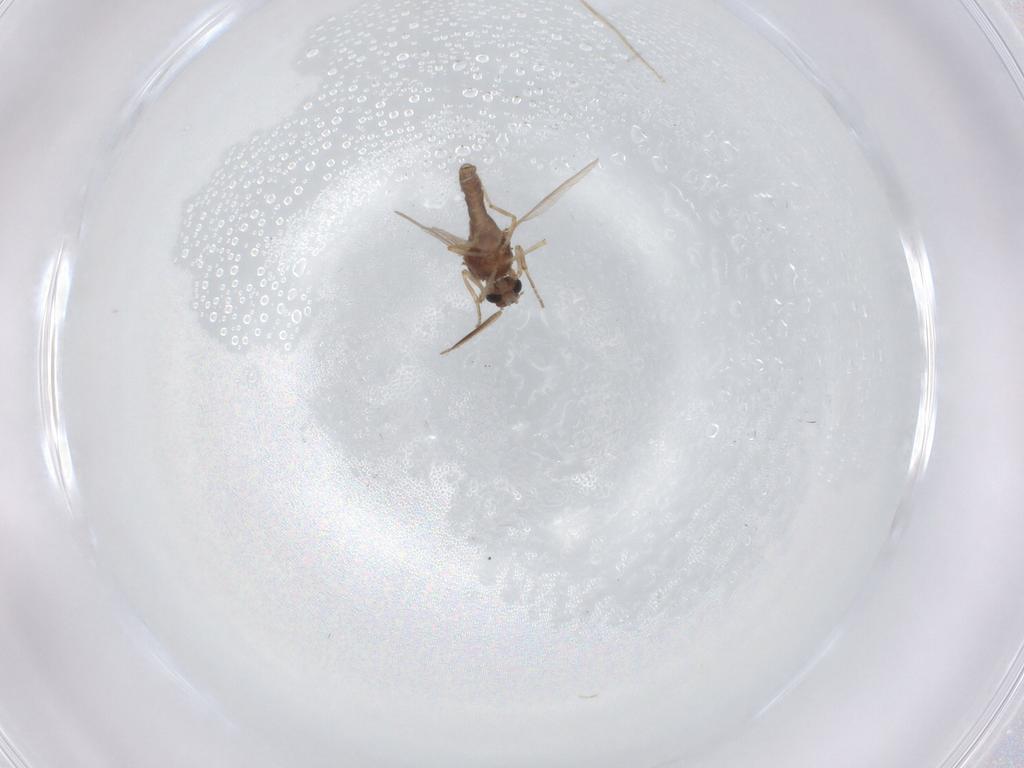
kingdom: Animalia
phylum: Arthropoda
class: Insecta
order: Diptera
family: Ceratopogonidae
